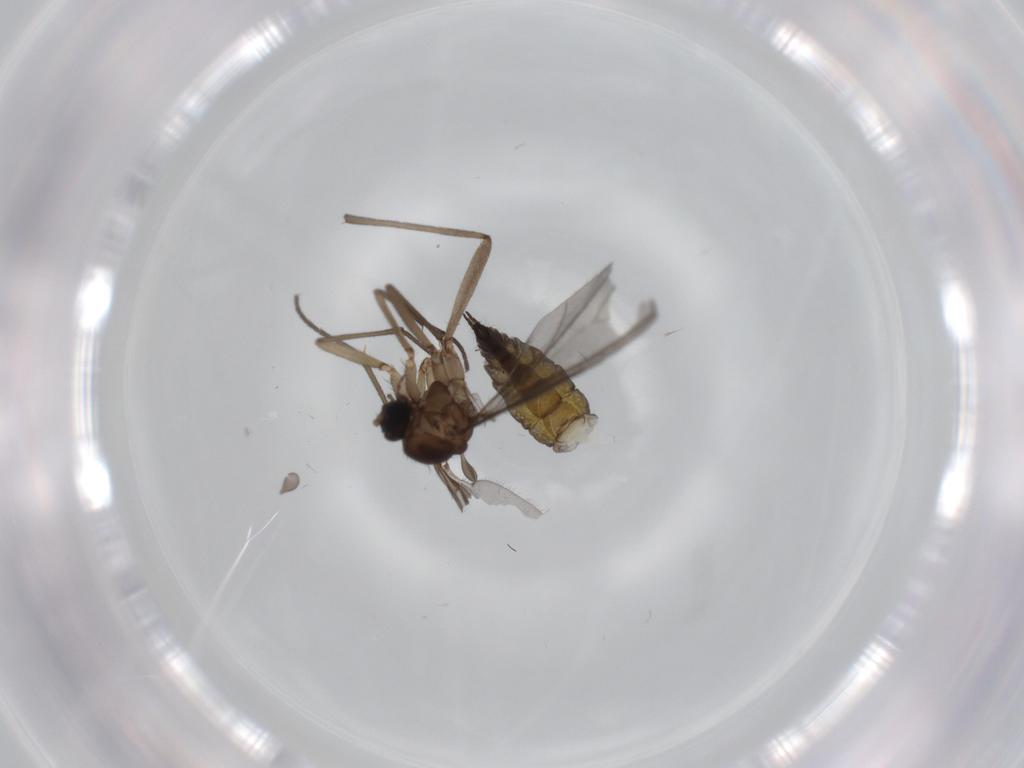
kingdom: Animalia
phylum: Arthropoda
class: Insecta
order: Diptera
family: Sciaridae
